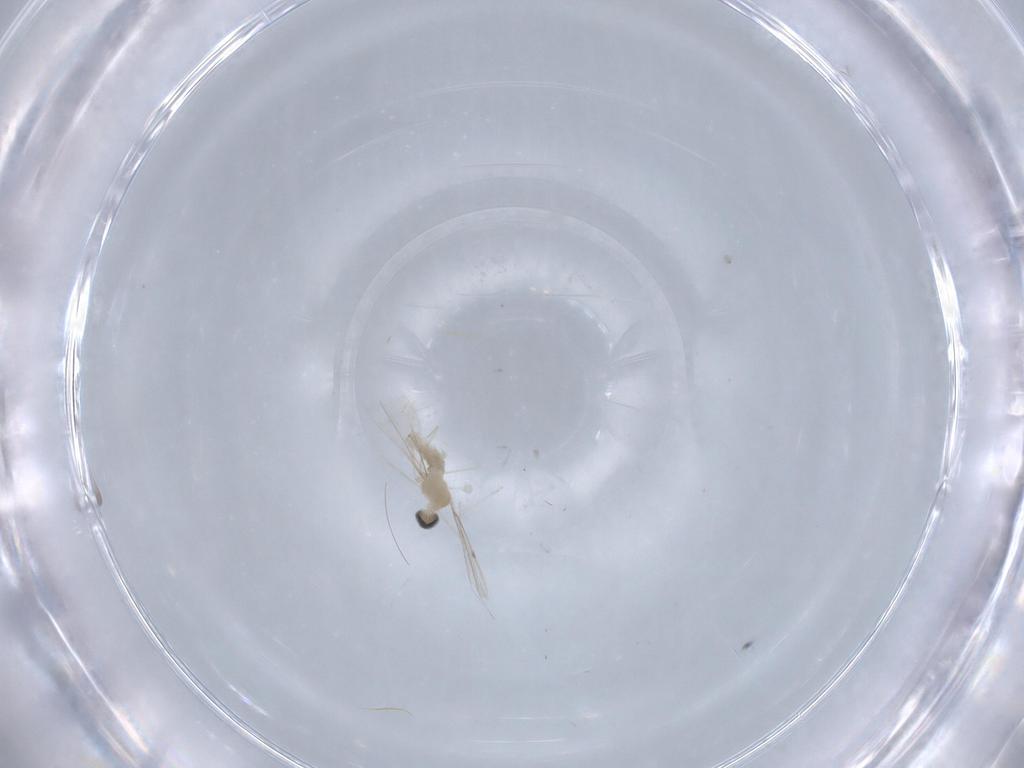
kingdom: Animalia
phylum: Arthropoda
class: Insecta
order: Diptera
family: Cecidomyiidae
